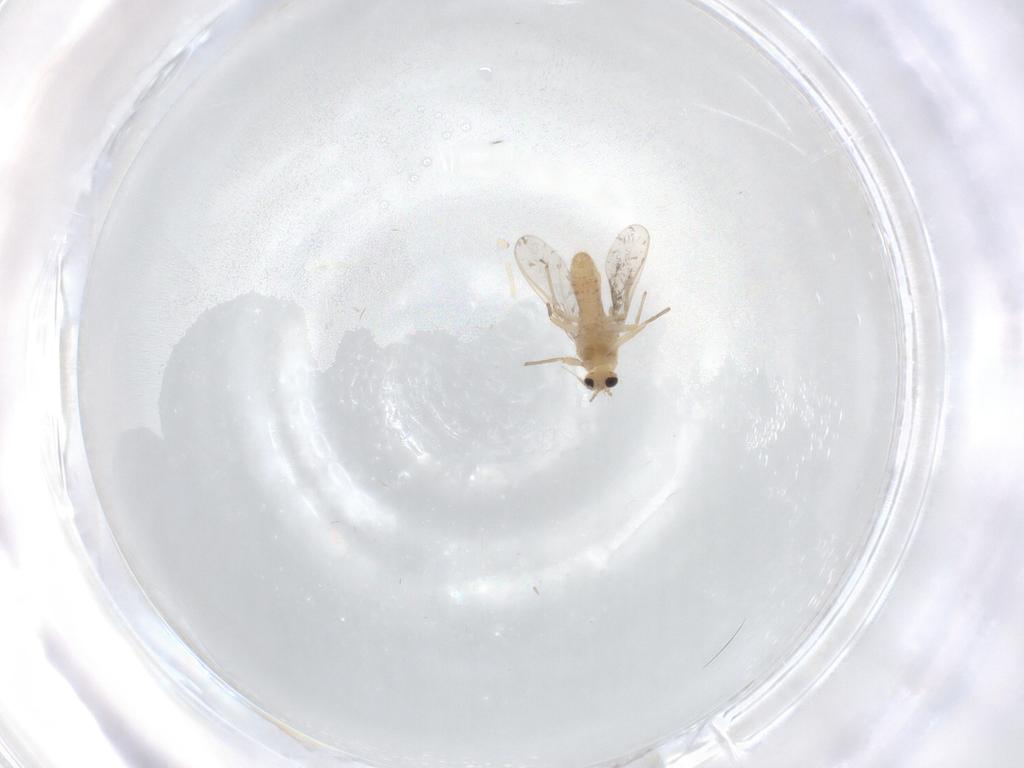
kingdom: Animalia
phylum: Arthropoda
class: Insecta
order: Diptera
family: Chironomidae
